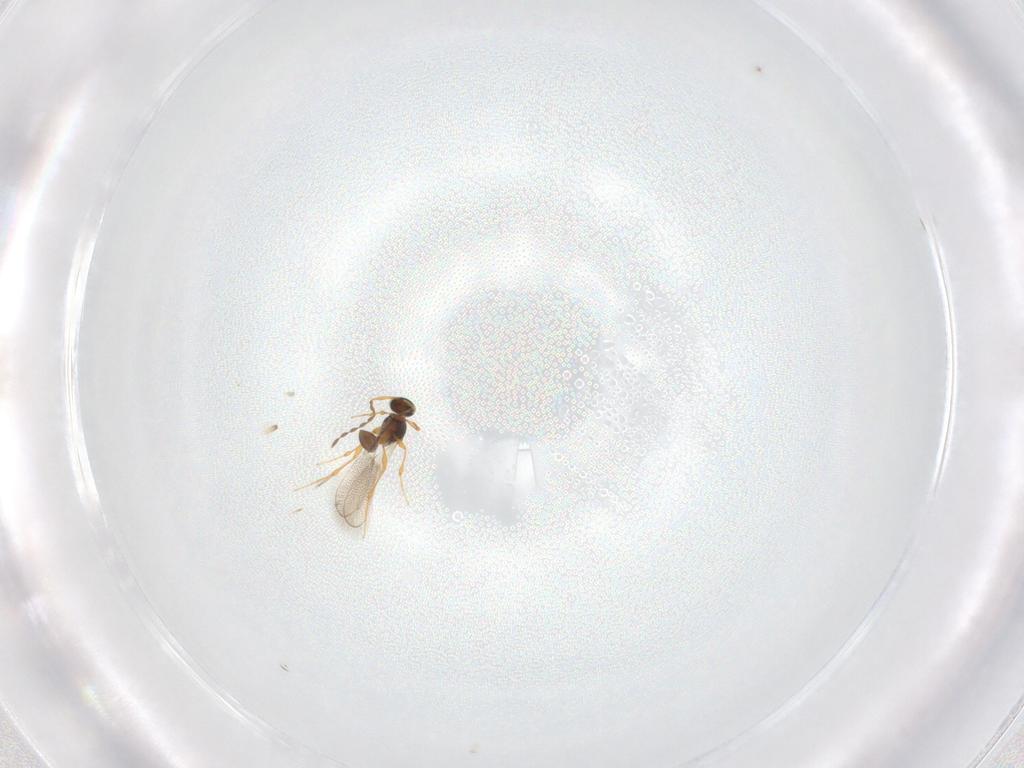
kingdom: Animalia
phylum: Arthropoda
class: Insecta
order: Hymenoptera
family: Platygastridae
